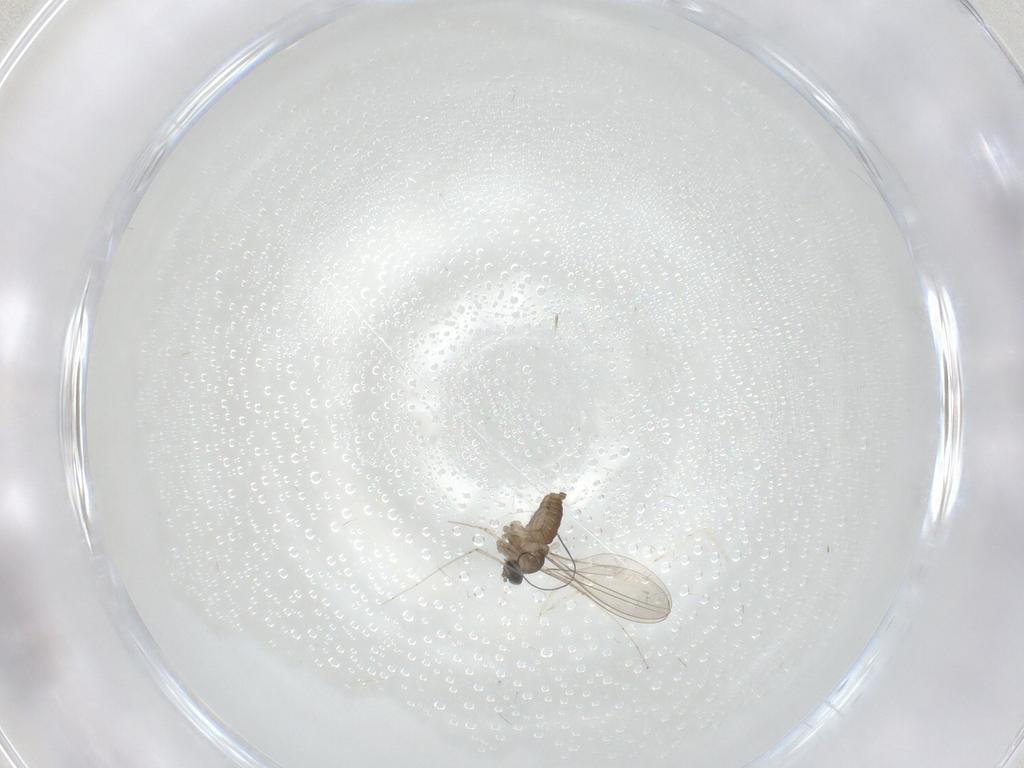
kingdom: Animalia
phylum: Arthropoda
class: Insecta
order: Diptera
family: Cecidomyiidae
